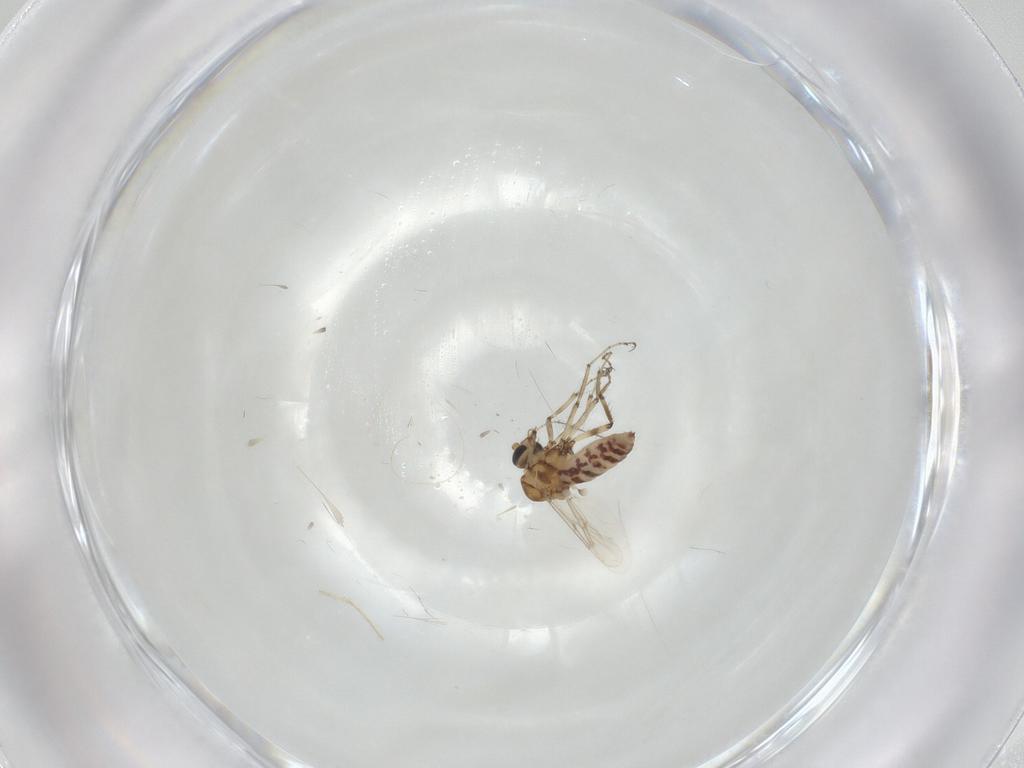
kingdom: Animalia
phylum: Arthropoda
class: Insecta
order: Diptera
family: Ceratopogonidae
